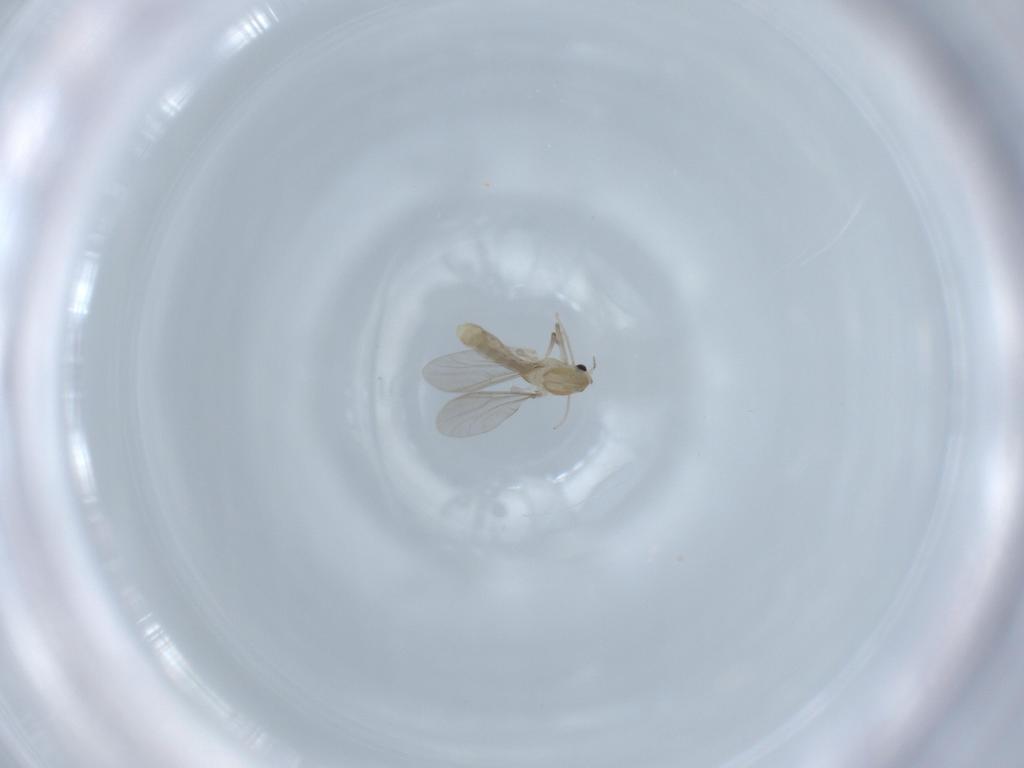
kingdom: Animalia
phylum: Arthropoda
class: Insecta
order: Diptera
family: Chironomidae
